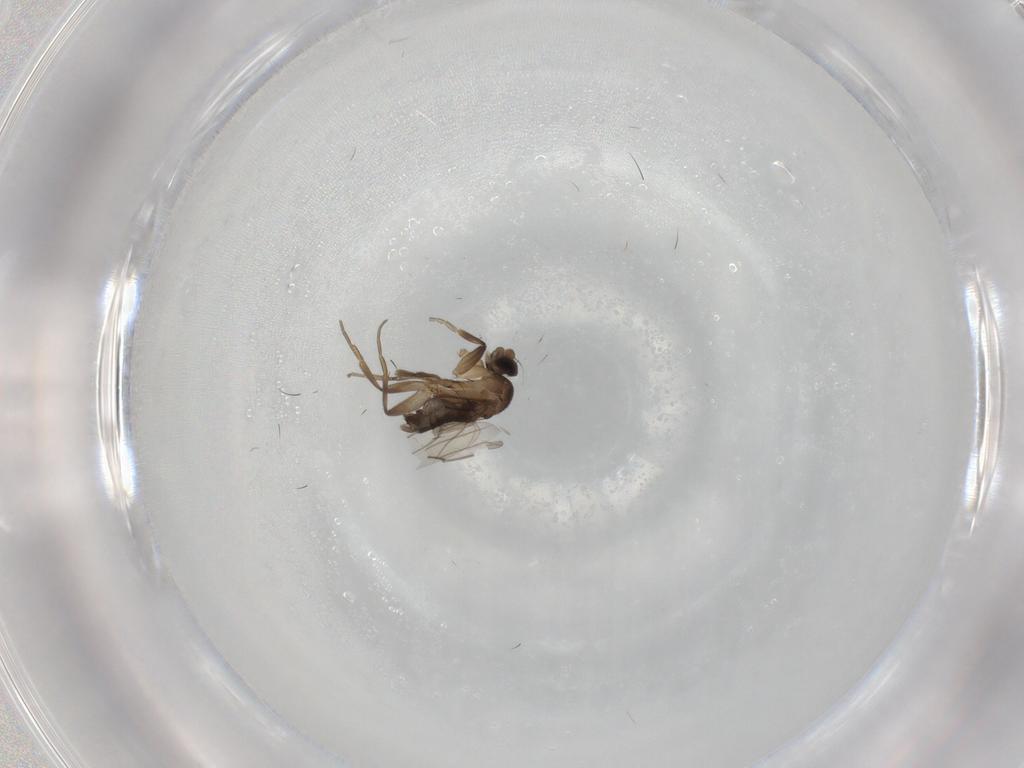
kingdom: Animalia
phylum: Arthropoda
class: Insecta
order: Diptera
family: Phoridae
